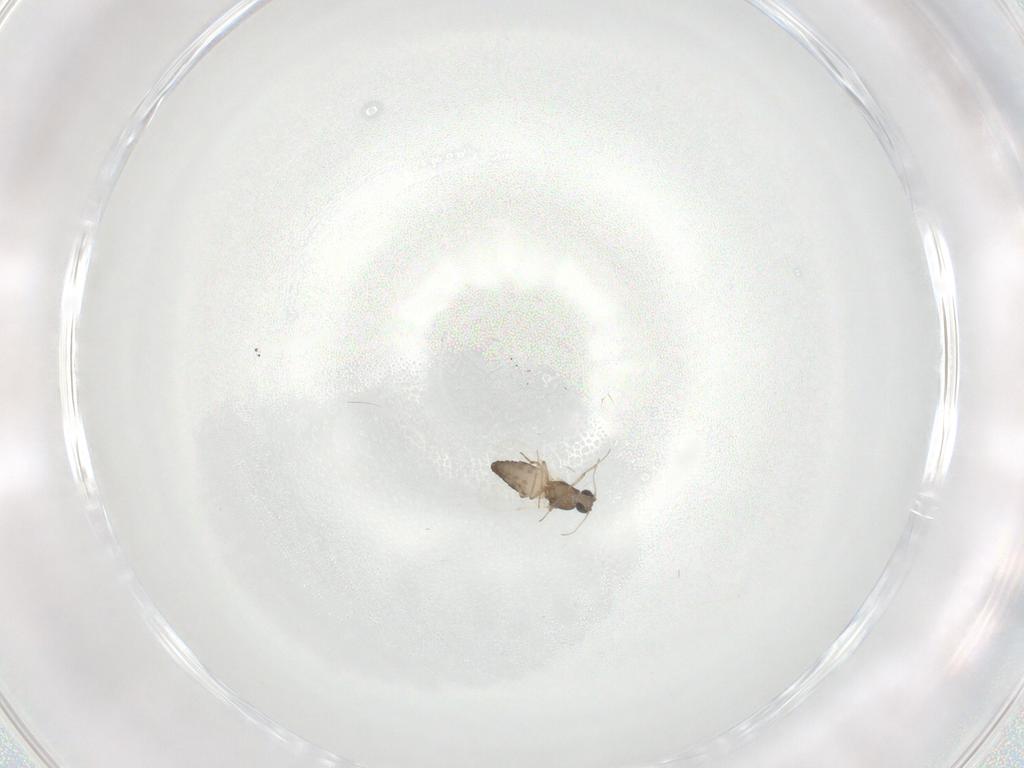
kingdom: Animalia
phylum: Arthropoda
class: Insecta
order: Diptera
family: Ceratopogonidae
